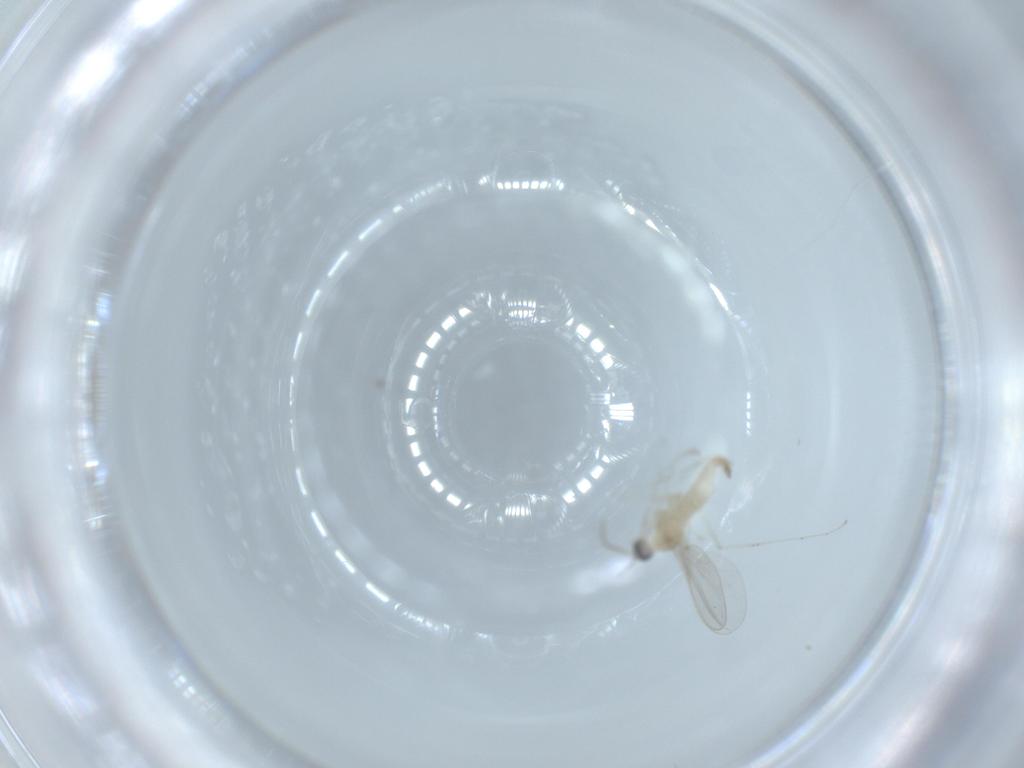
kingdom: Animalia
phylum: Arthropoda
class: Insecta
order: Diptera
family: Cecidomyiidae
